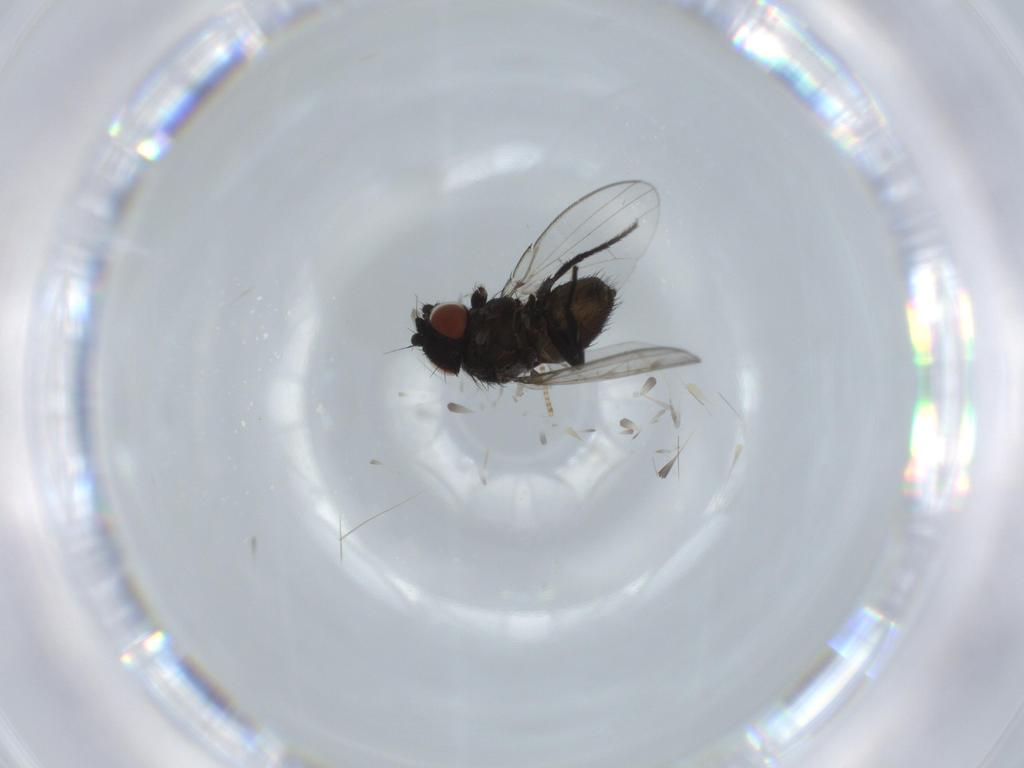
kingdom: Animalia
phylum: Arthropoda
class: Insecta
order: Diptera
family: Milichiidae
